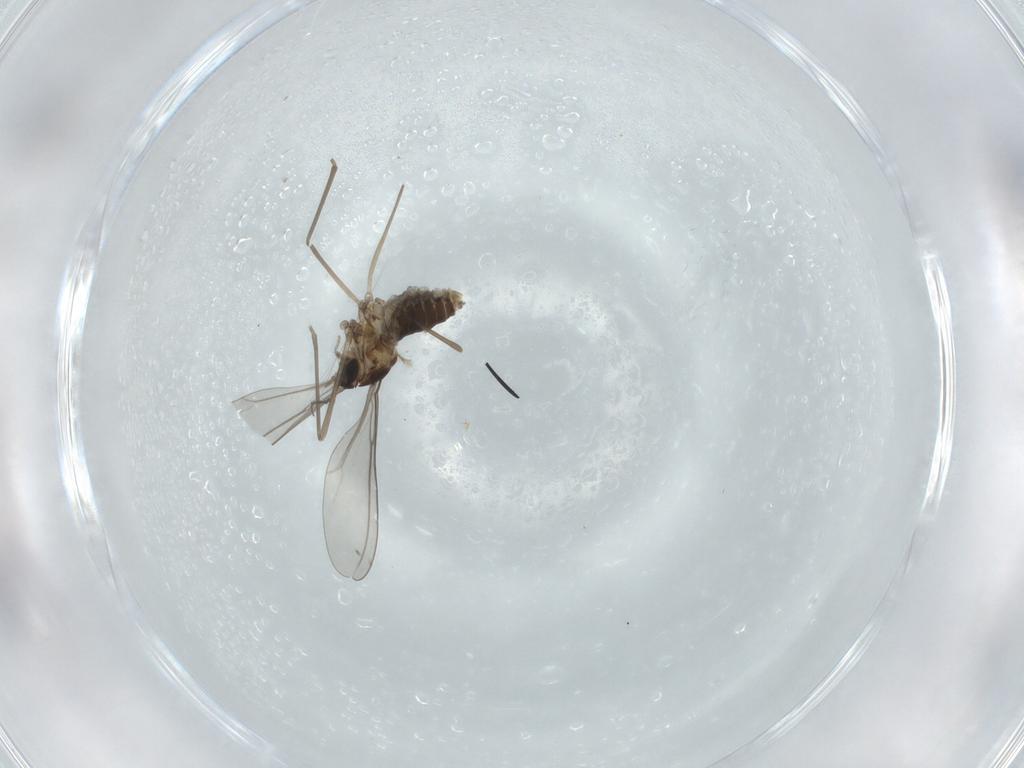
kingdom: Animalia
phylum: Arthropoda
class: Insecta
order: Diptera
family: Cecidomyiidae
